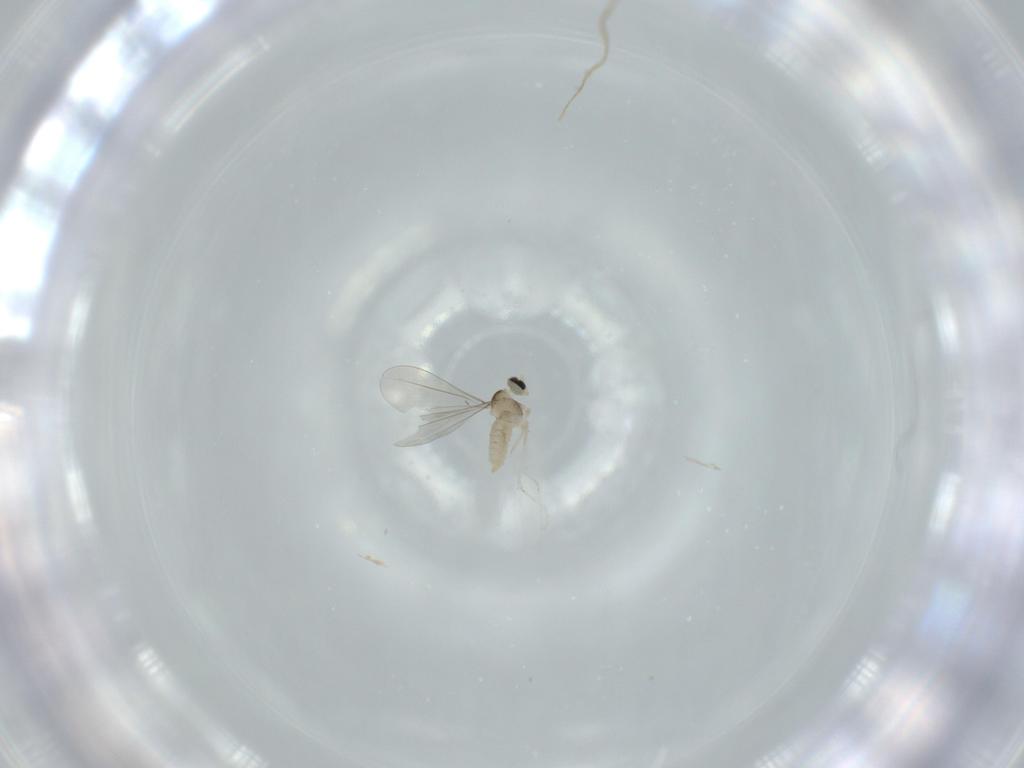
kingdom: Animalia
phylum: Arthropoda
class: Insecta
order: Diptera
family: Cecidomyiidae
